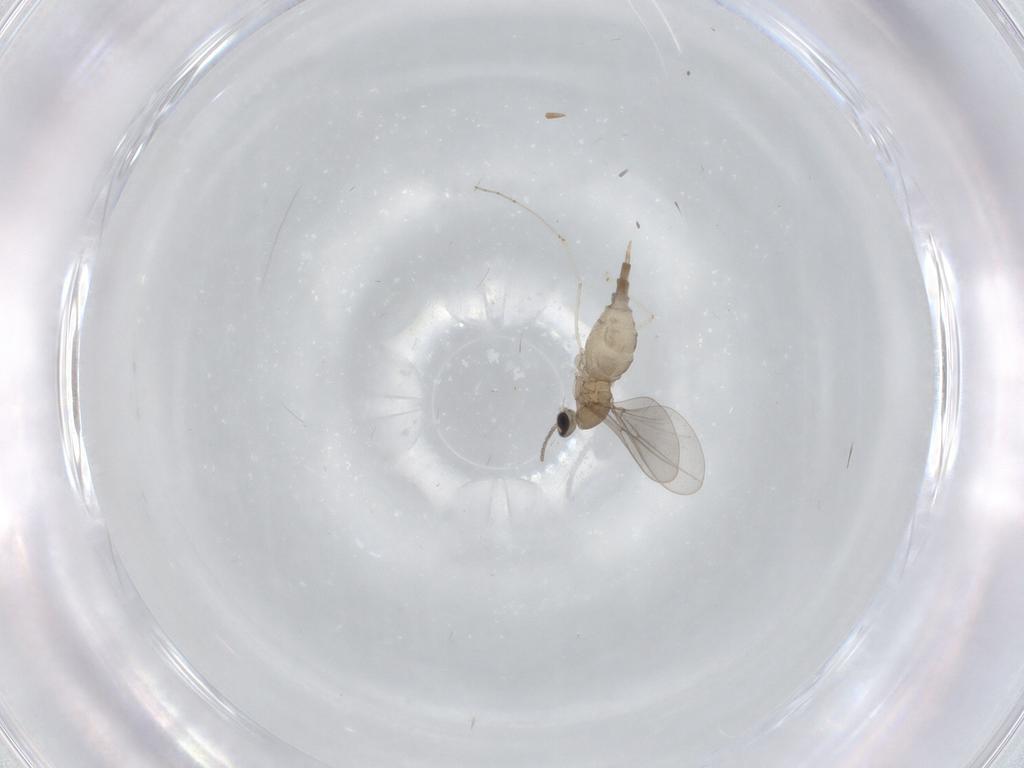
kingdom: Animalia
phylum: Arthropoda
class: Insecta
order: Diptera
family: Cecidomyiidae
